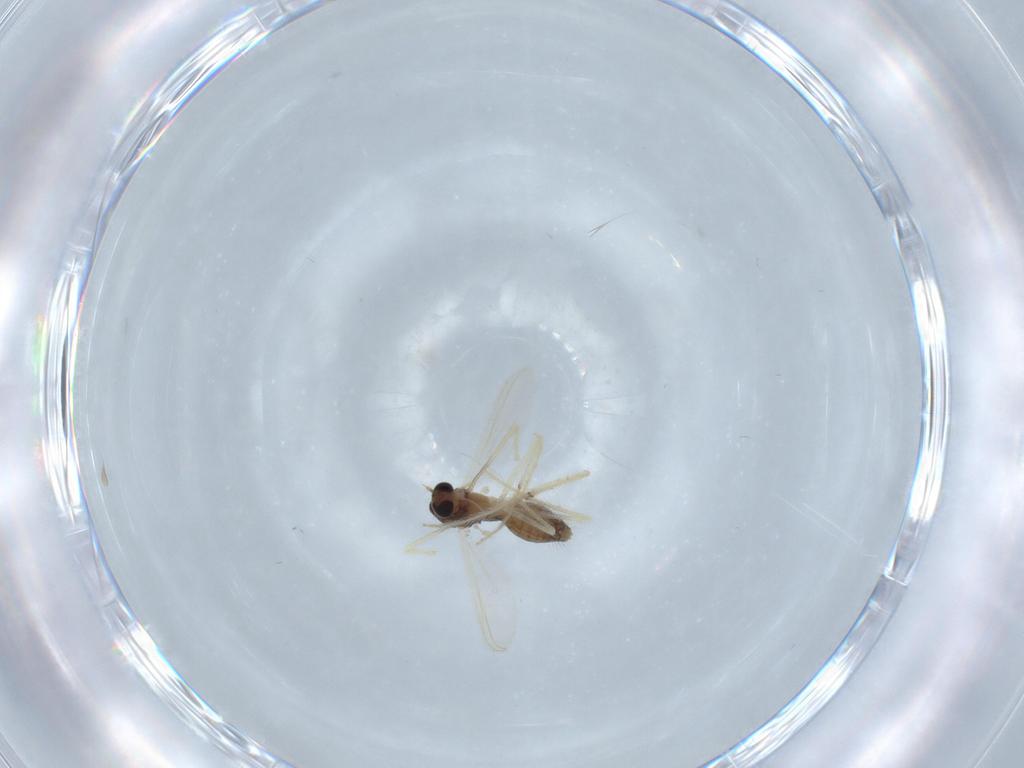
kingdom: Animalia
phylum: Arthropoda
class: Insecta
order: Diptera
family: Chironomidae
